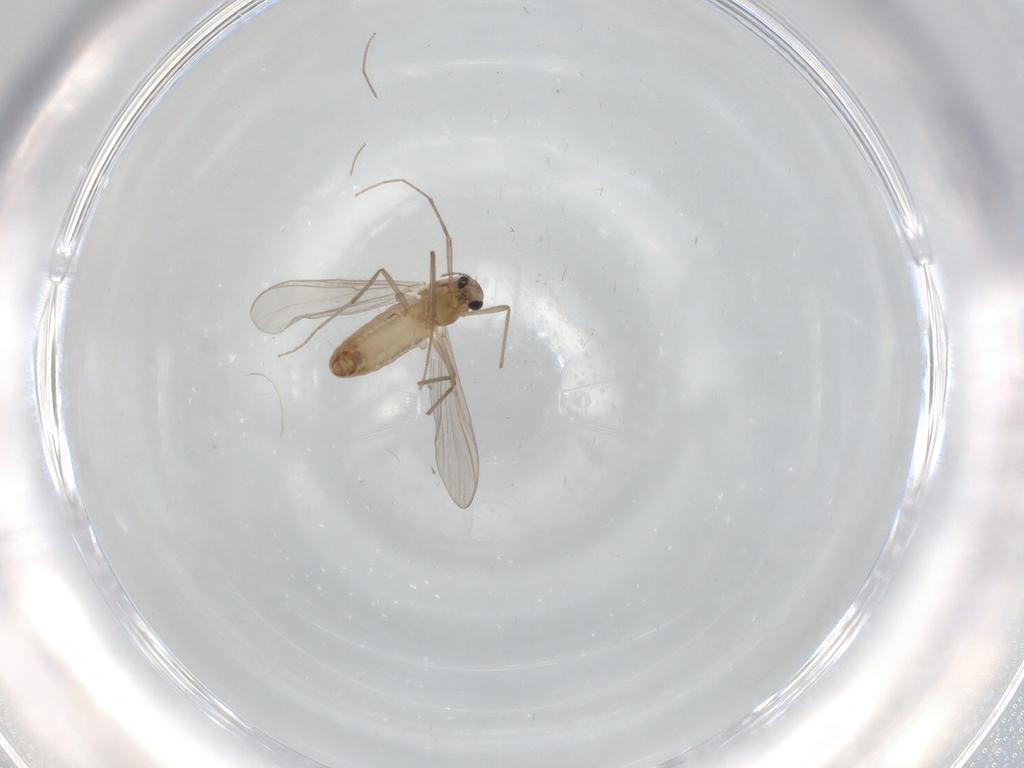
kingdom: Animalia
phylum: Arthropoda
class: Insecta
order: Diptera
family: Chironomidae
